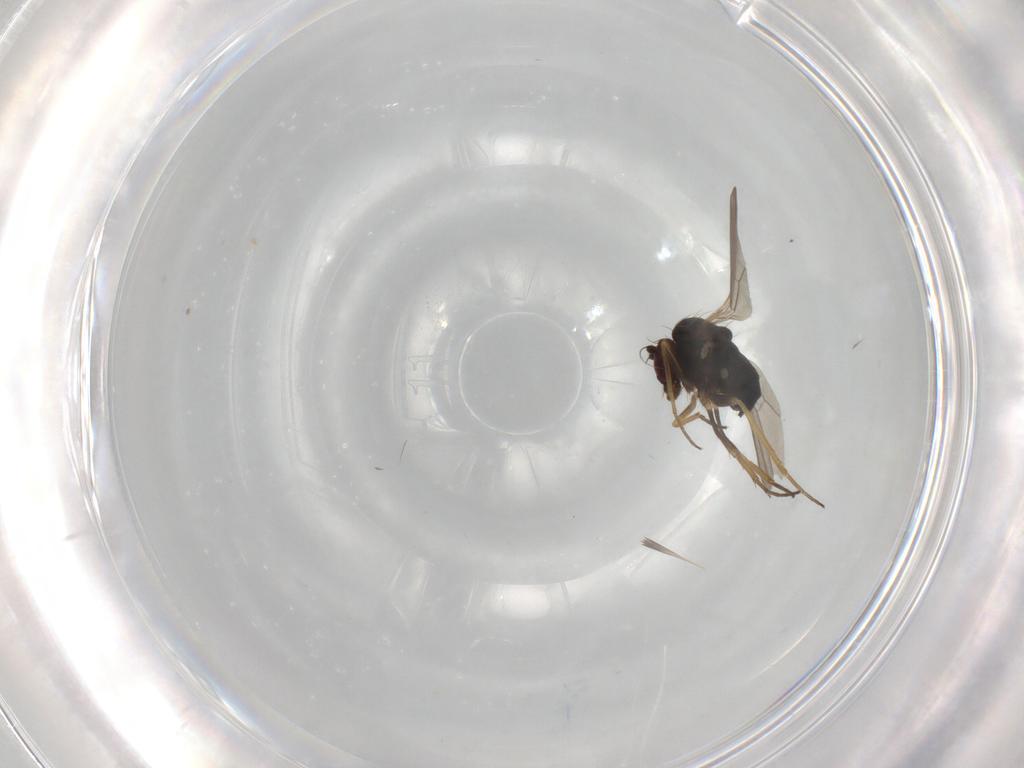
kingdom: Animalia
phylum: Arthropoda
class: Insecta
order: Diptera
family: Dolichopodidae
